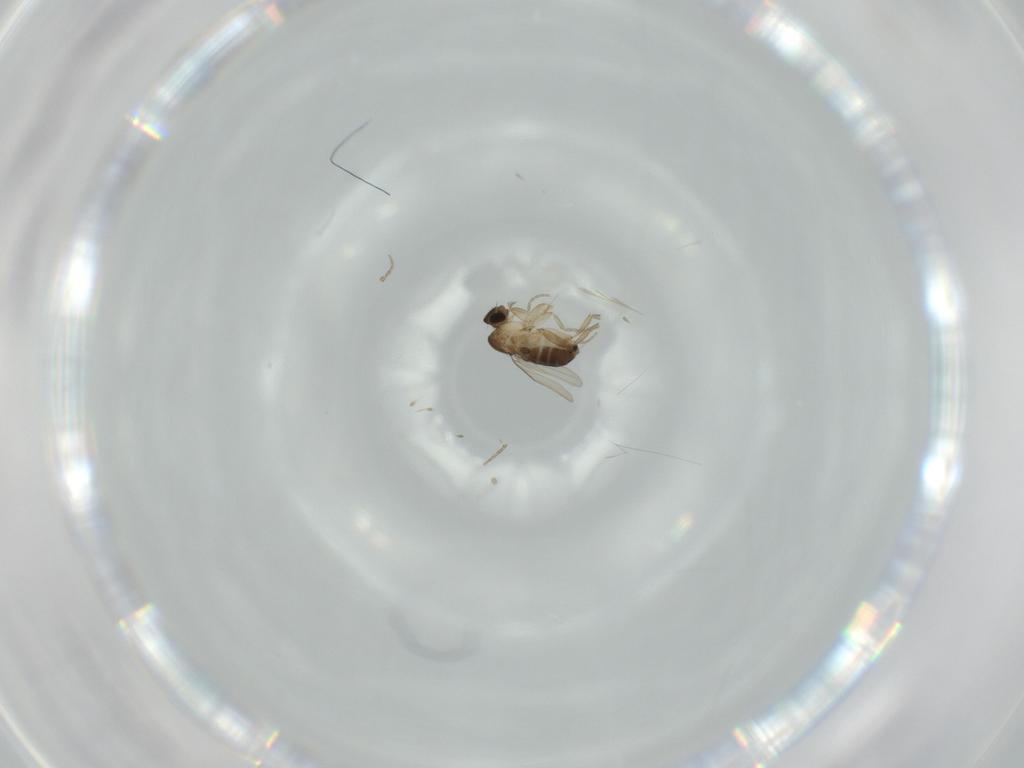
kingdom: Animalia
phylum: Arthropoda
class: Insecta
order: Diptera
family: Phoridae
